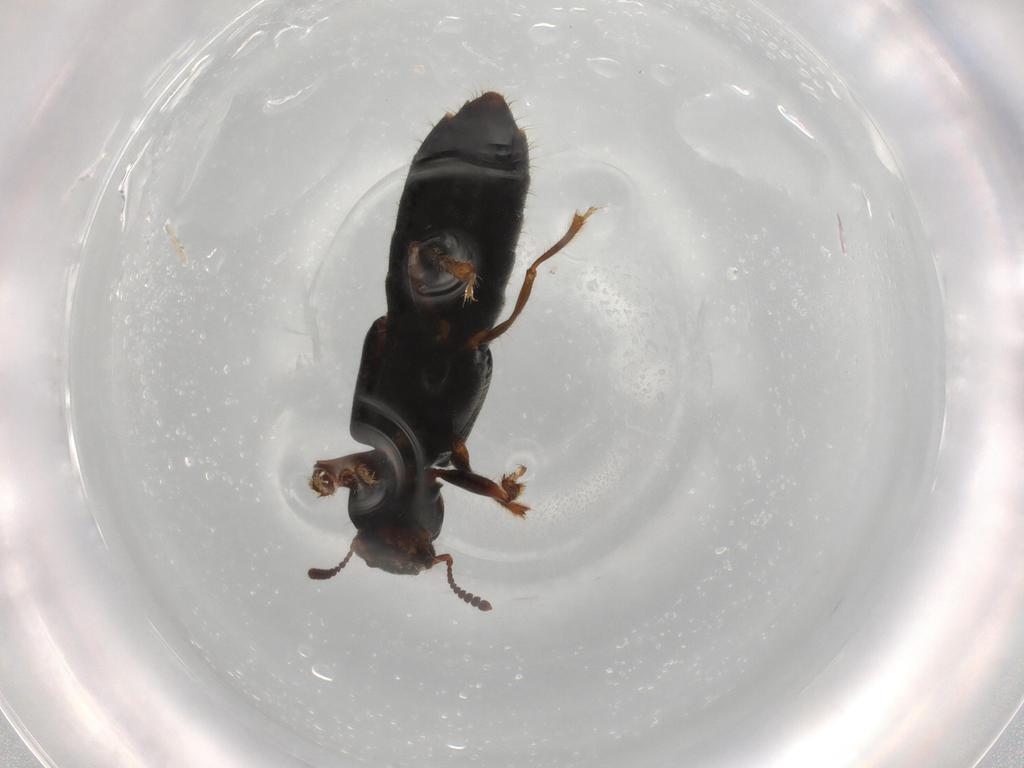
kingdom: Animalia
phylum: Arthropoda
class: Insecta
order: Coleoptera
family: Staphylinidae
